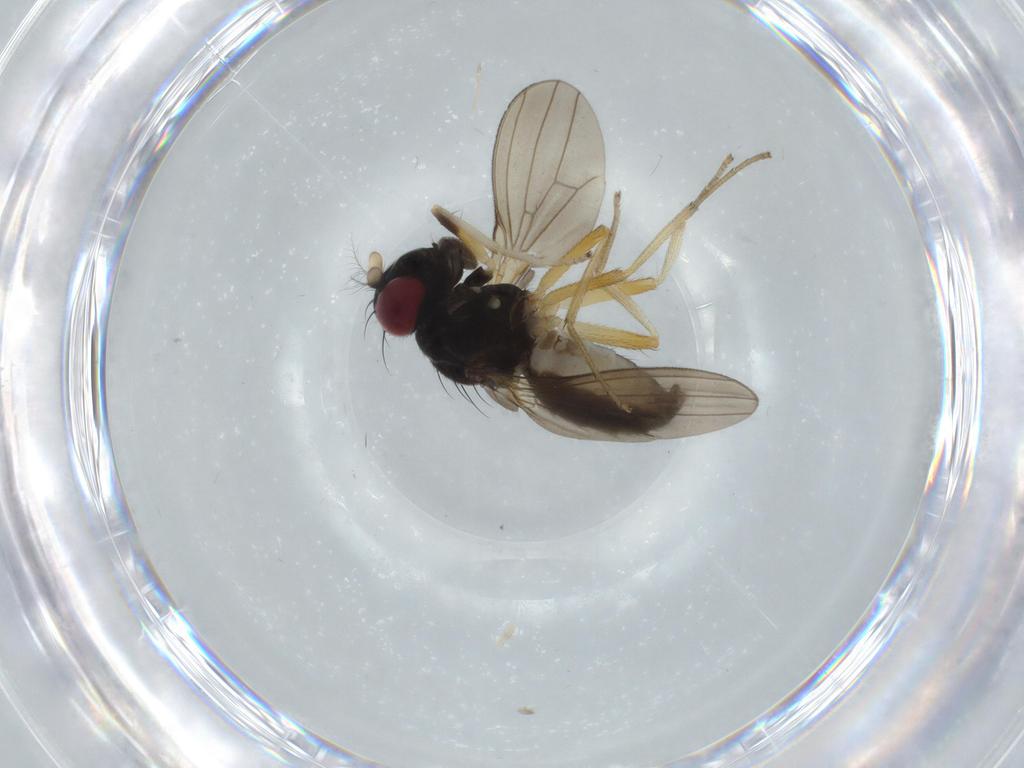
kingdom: Animalia
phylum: Arthropoda
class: Insecta
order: Diptera
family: Lauxaniidae
